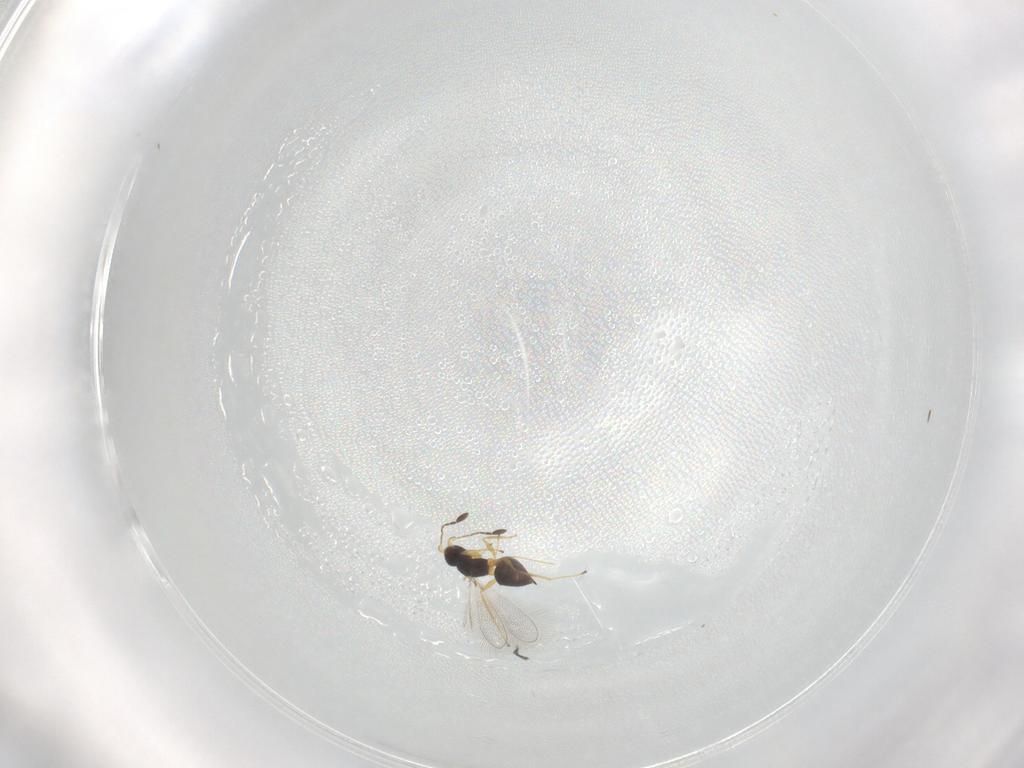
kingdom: Animalia
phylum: Arthropoda
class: Insecta
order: Hymenoptera
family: Mymaridae
